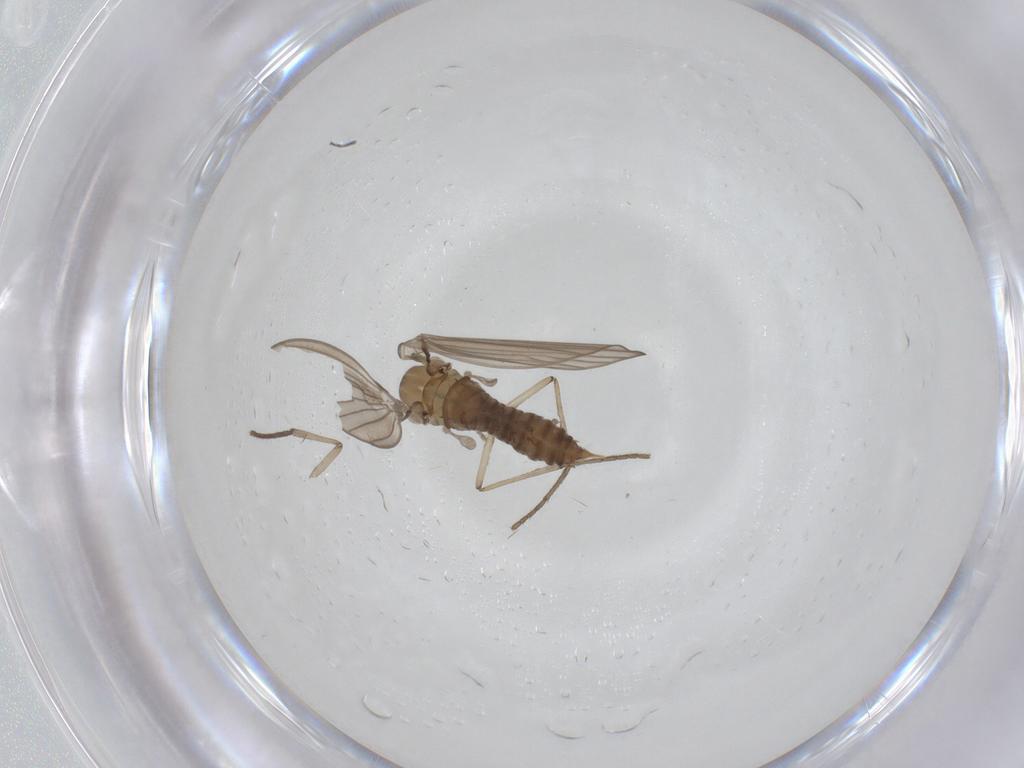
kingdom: Animalia
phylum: Arthropoda
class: Insecta
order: Diptera
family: Psychodidae
